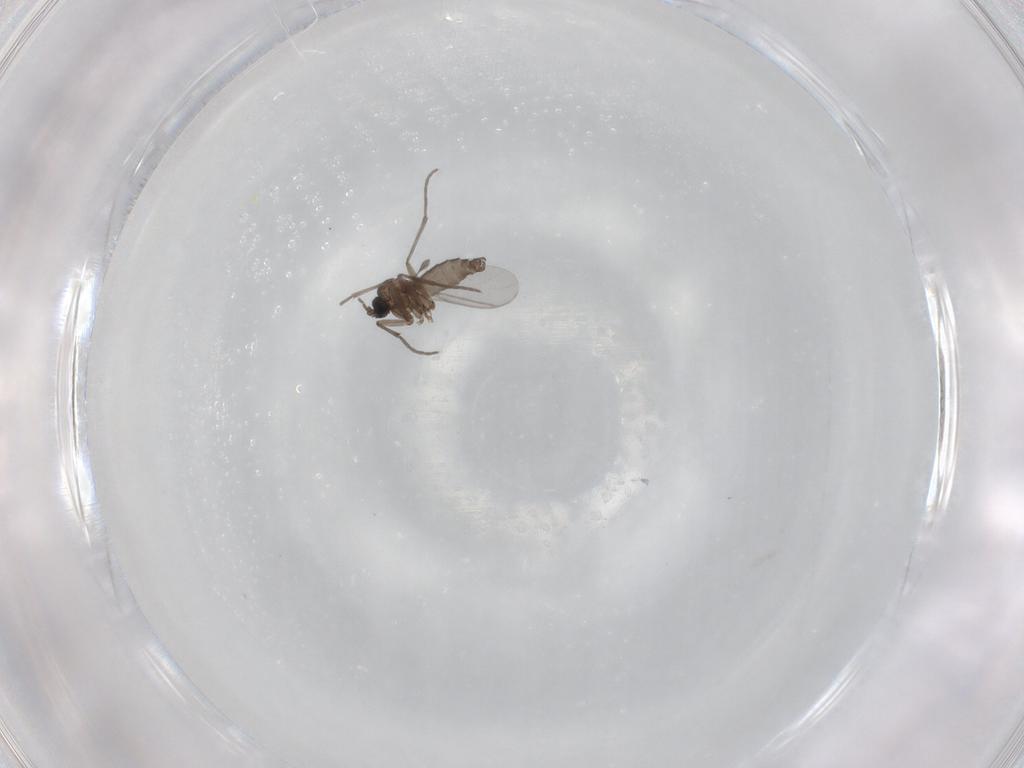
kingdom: Animalia
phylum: Arthropoda
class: Insecta
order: Diptera
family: Sciaridae
